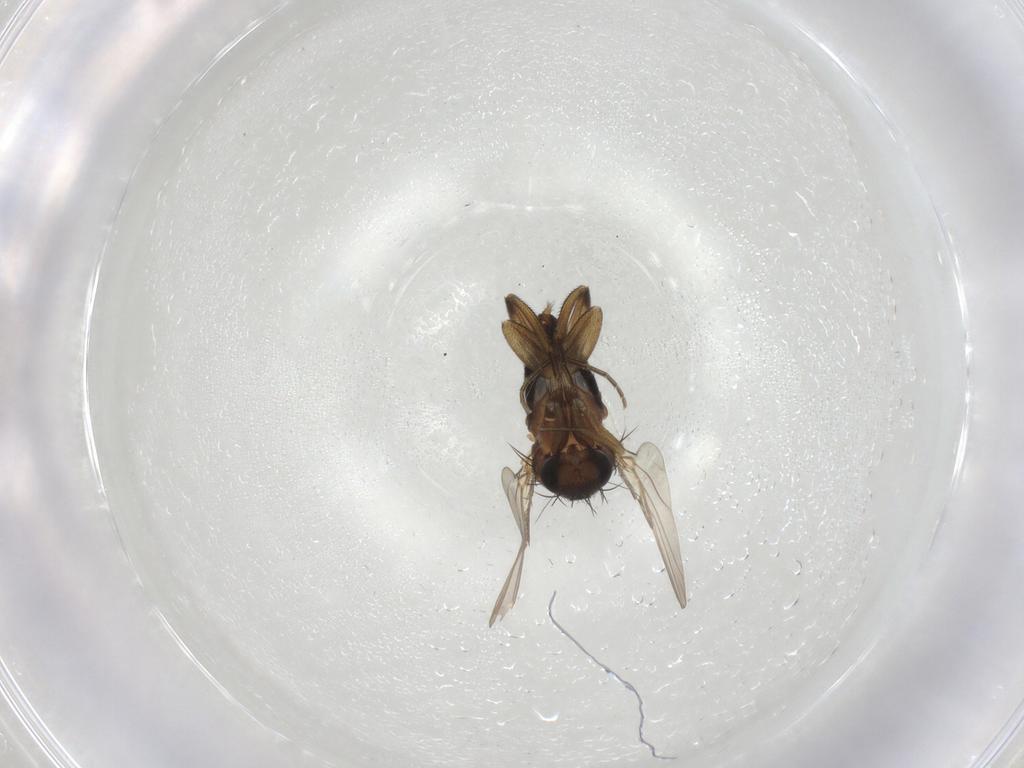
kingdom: Animalia
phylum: Arthropoda
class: Insecta
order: Diptera
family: Phoridae
